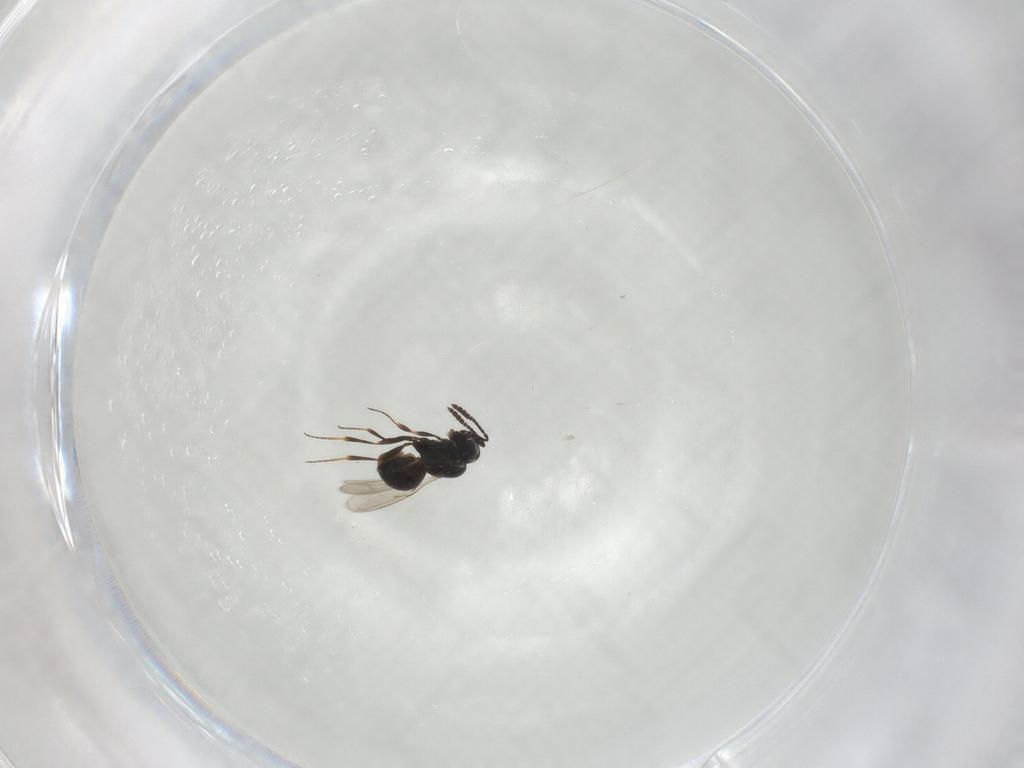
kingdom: Animalia
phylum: Arthropoda
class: Insecta
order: Hymenoptera
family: Scelionidae
